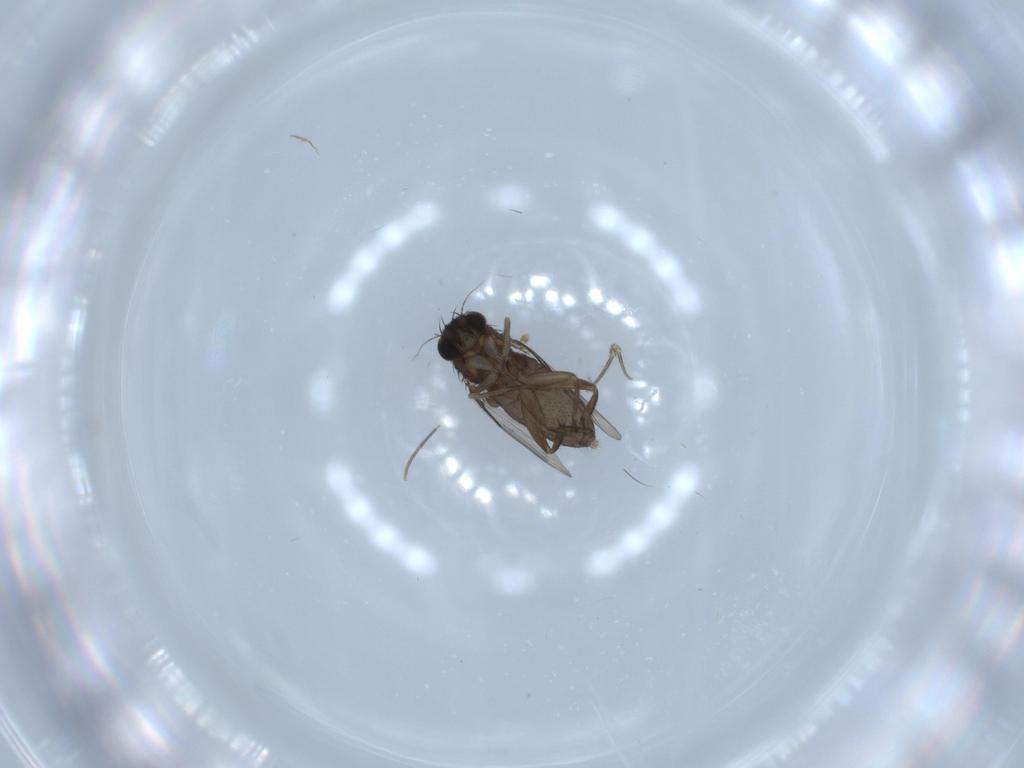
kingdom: Animalia
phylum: Arthropoda
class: Insecta
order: Diptera
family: Phoridae
